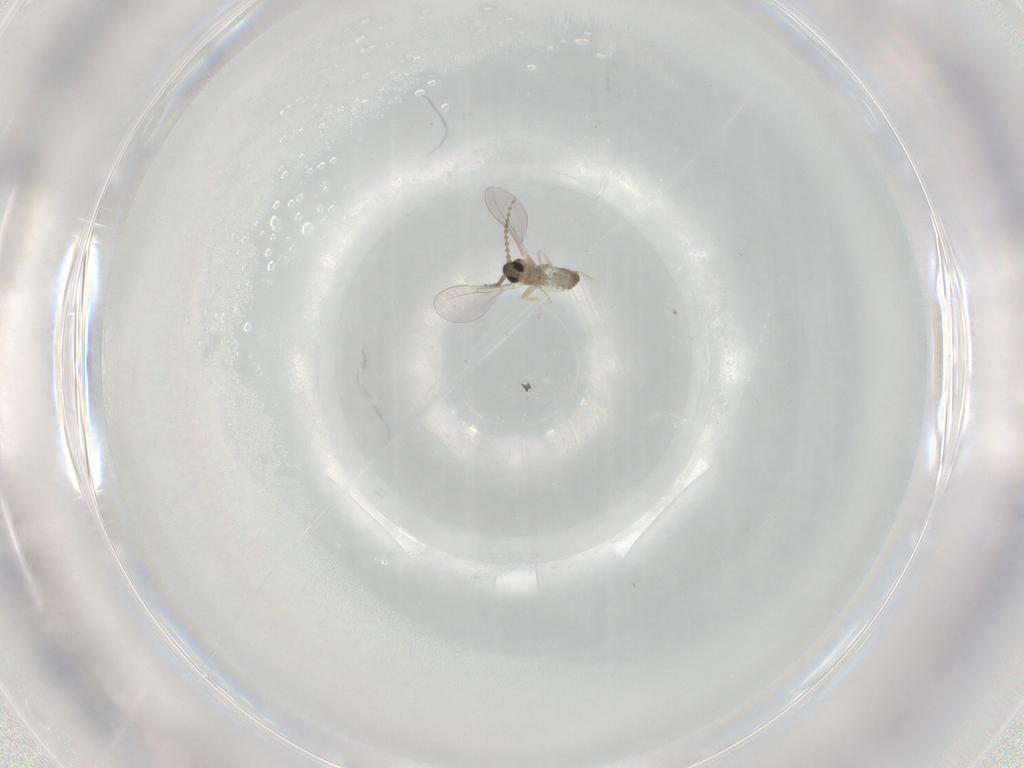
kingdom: Animalia
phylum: Arthropoda
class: Insecta
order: Diptera
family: Cecidomyiidae
